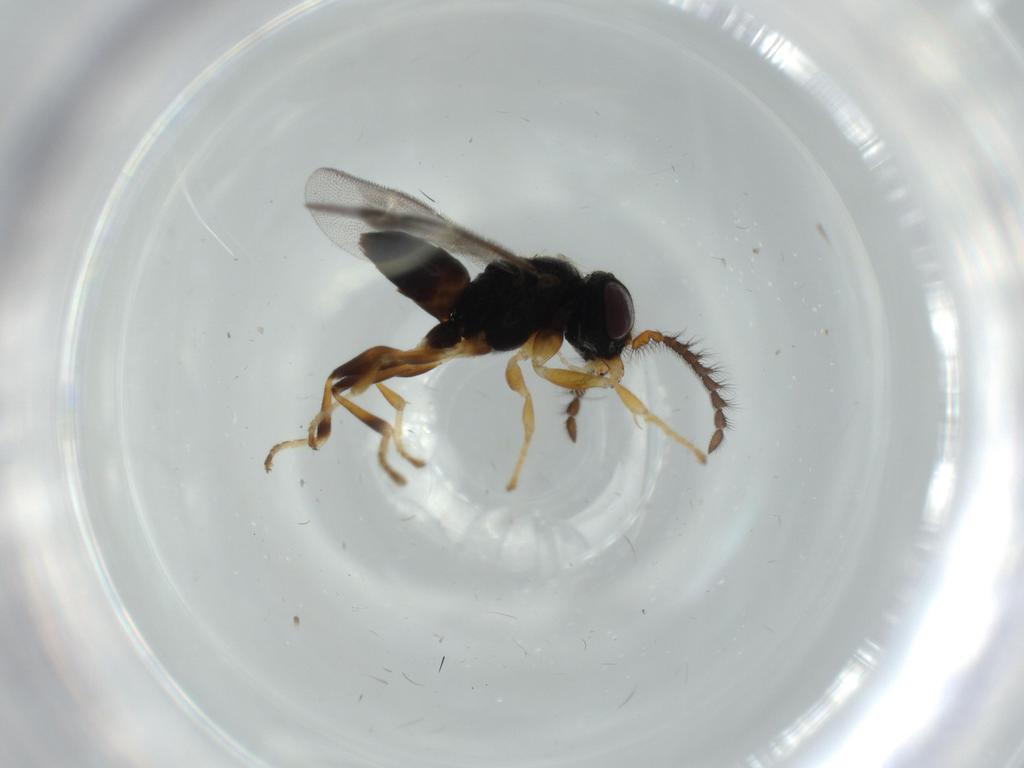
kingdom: Animalia
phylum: Arthropoda
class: Insecta
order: Hymenoptera
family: Dryinidae
